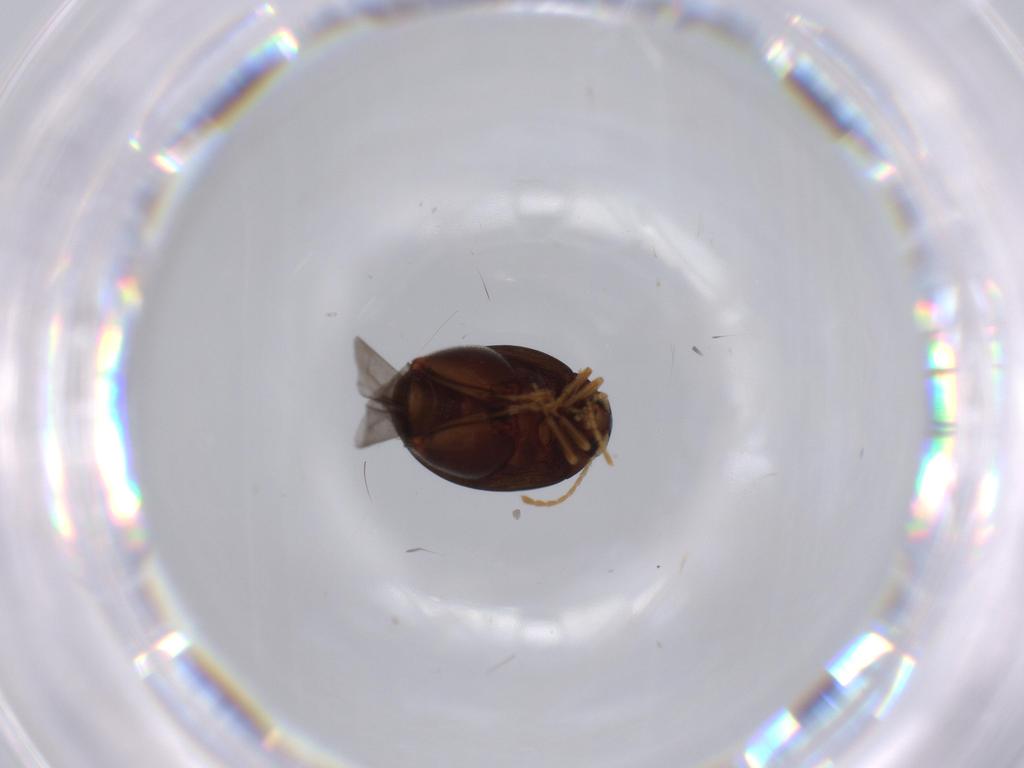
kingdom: Animalia
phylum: Arthropoda
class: Insecta
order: Coleoptera
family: Chrysomelidae
